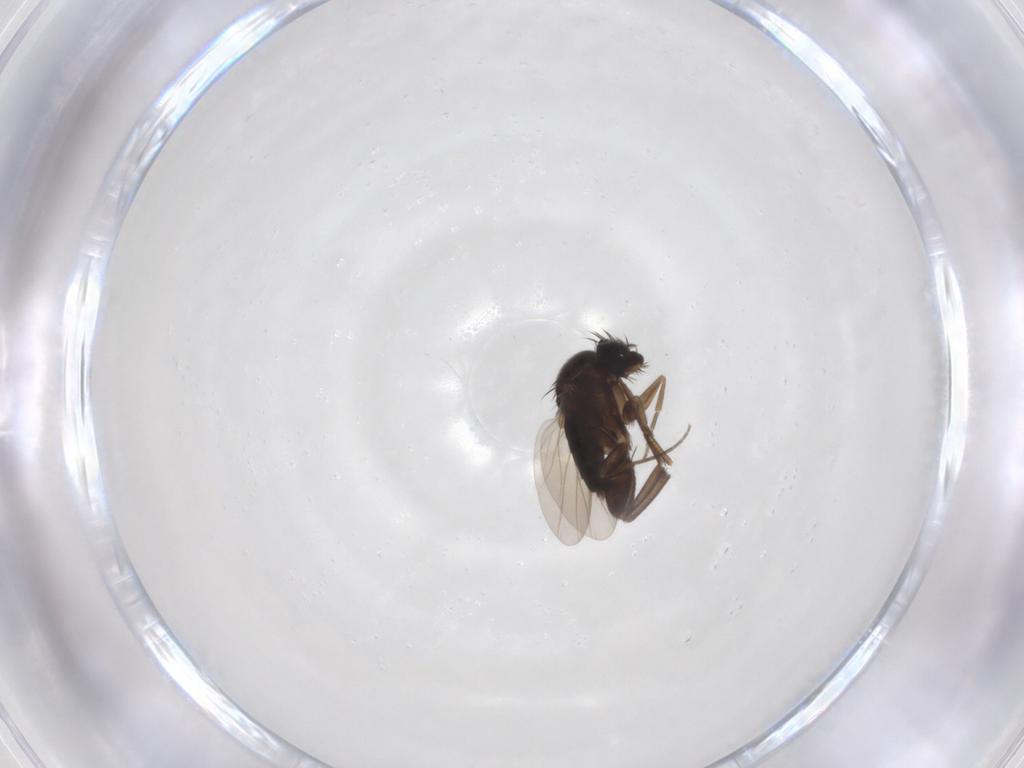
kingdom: Animalia
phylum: Arthropoda
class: Insecta
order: Diptera
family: Phoridae
